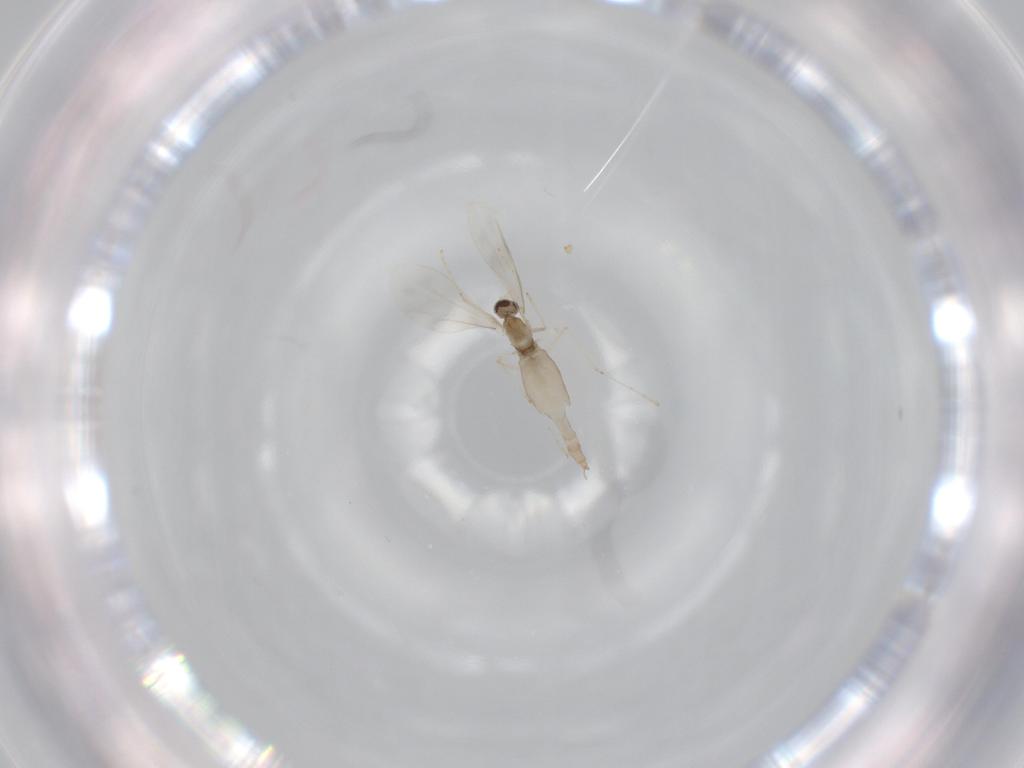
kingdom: Animalia
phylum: Arthropoda
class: Insecta
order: Diptera
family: Cecidomyiidae
